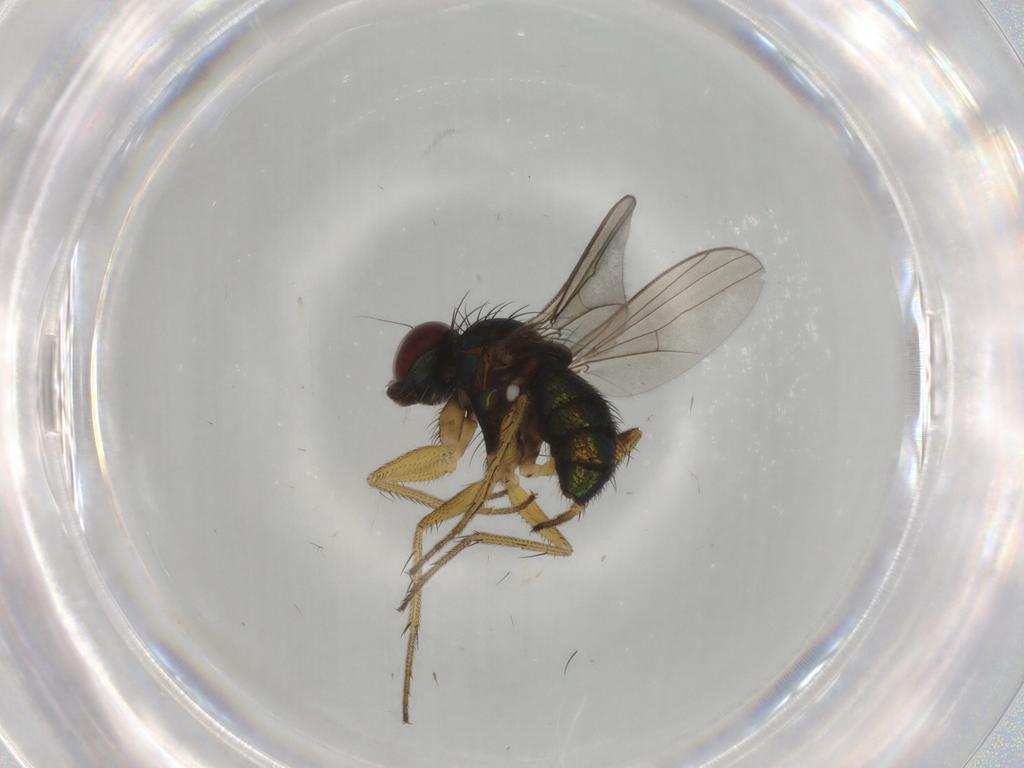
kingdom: Animalia
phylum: Arthropoda
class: Insecta
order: Diptera
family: Dolichopodidae
